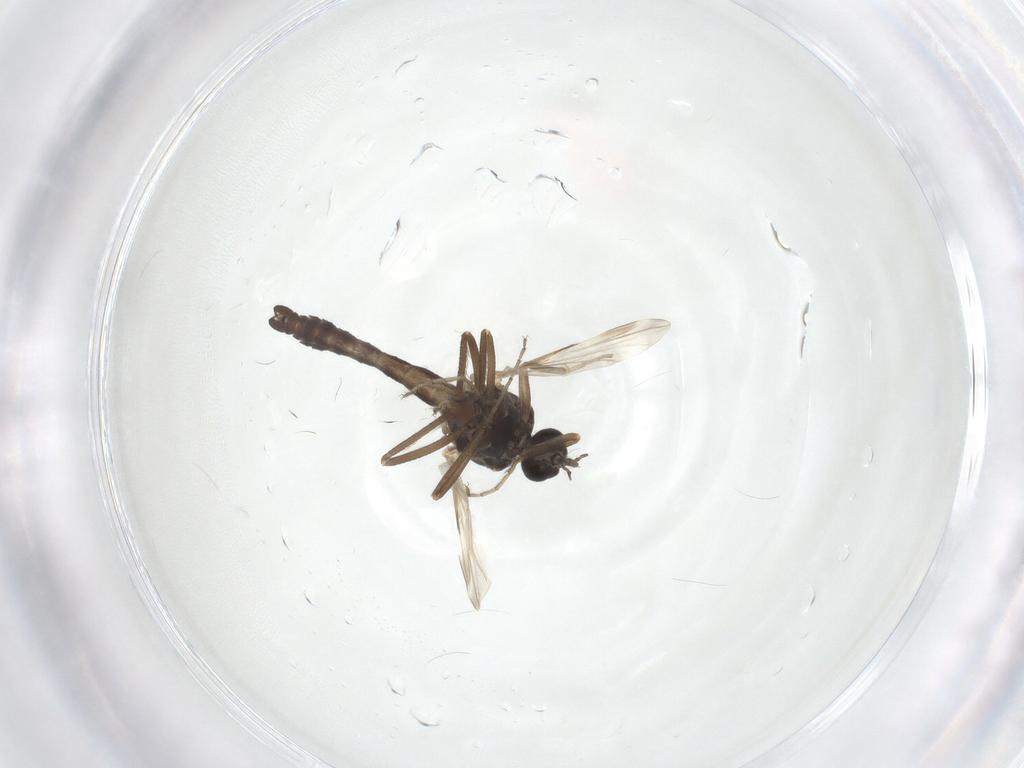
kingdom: Animalia
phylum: Arthropoda
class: Insecta
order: Diptera
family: Ceratopogonidae
